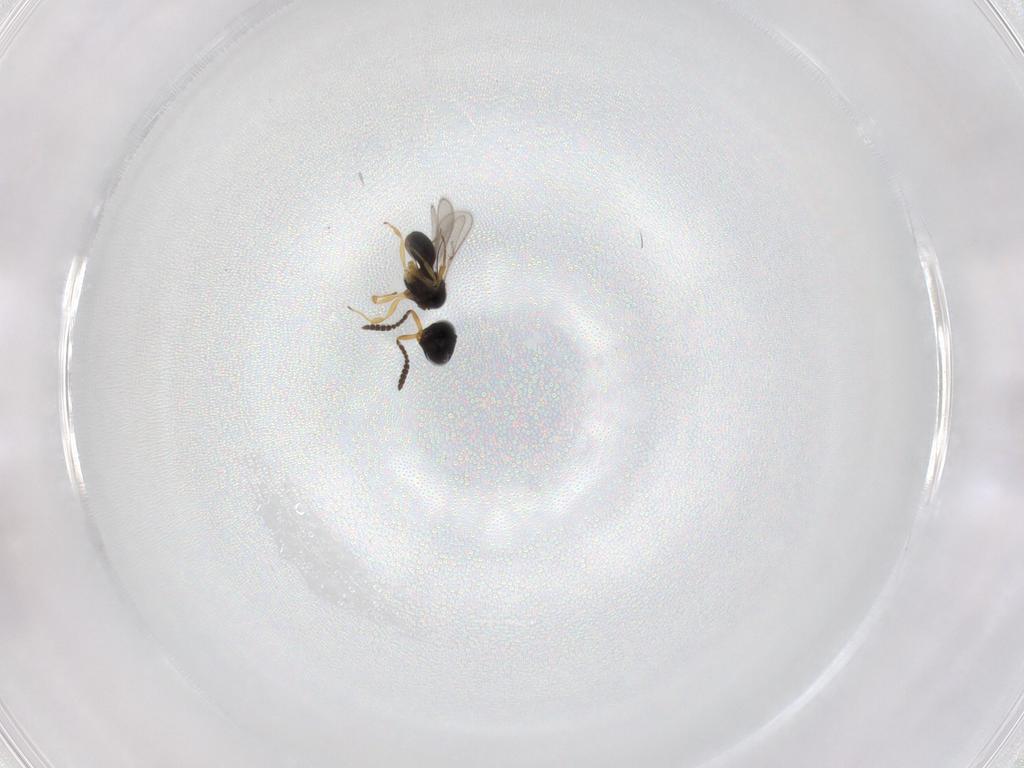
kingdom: Animalia
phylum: Arthropoda
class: Insecta
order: Hymenoptera
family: Scelionidae
